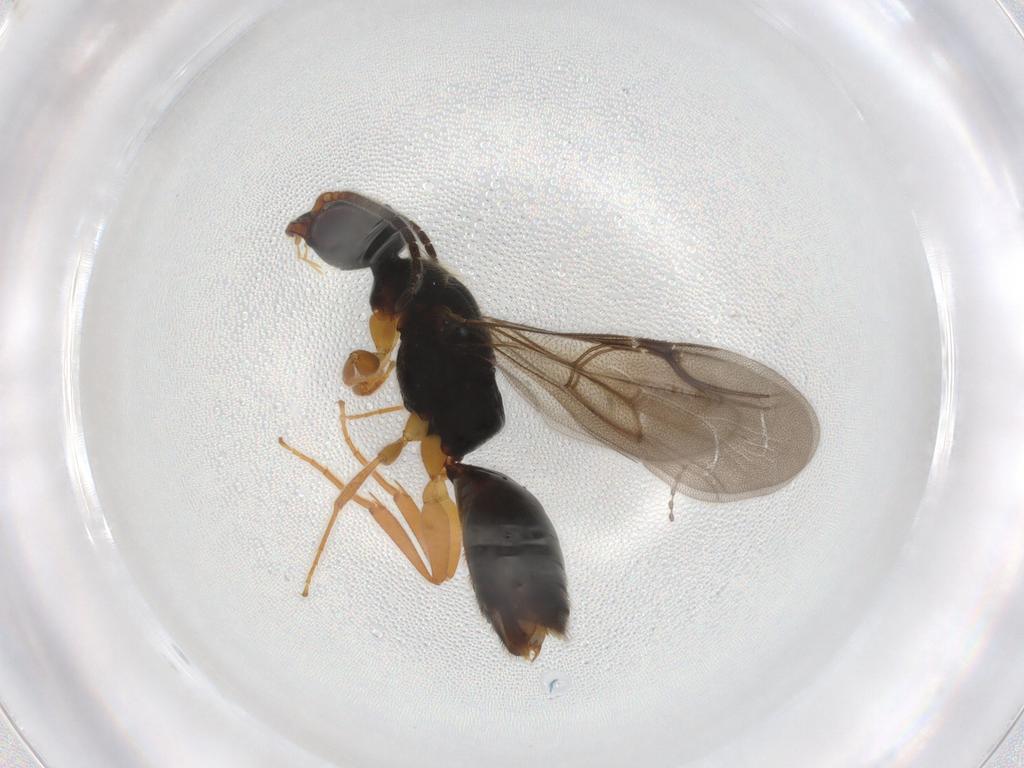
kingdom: Animalia
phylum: Arthropoda
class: Insecta
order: Hymenoptera
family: Bethylidae
